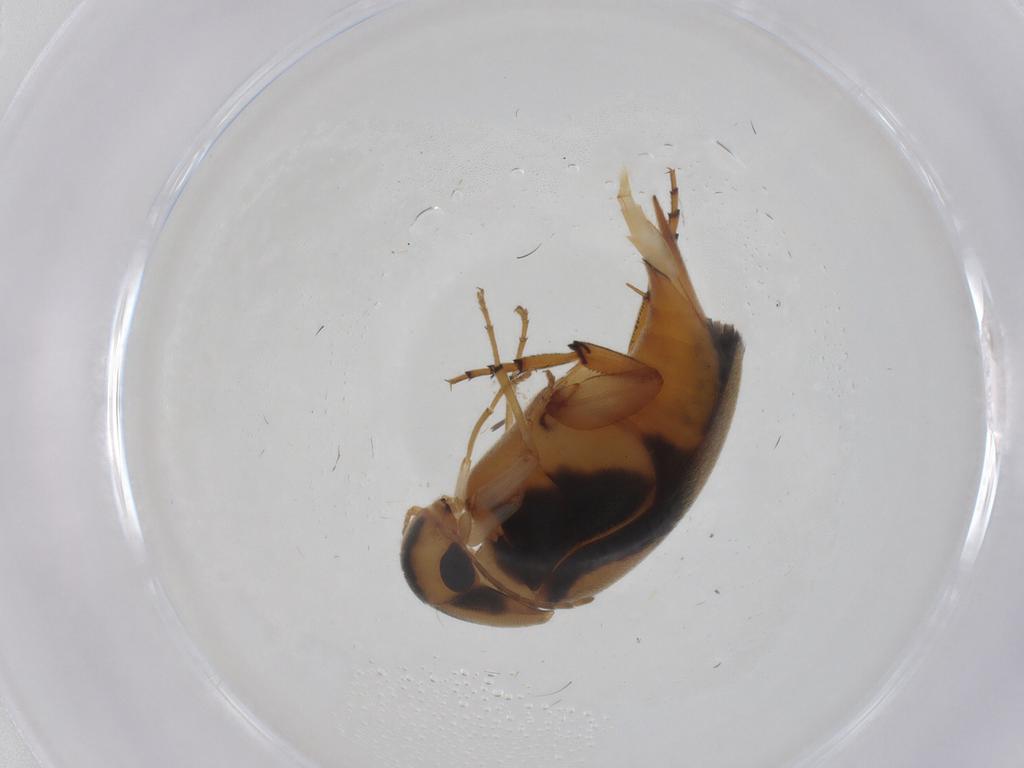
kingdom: Animalia
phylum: Arthropoda
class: Insecta
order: Coleoptera
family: Mordellidae
